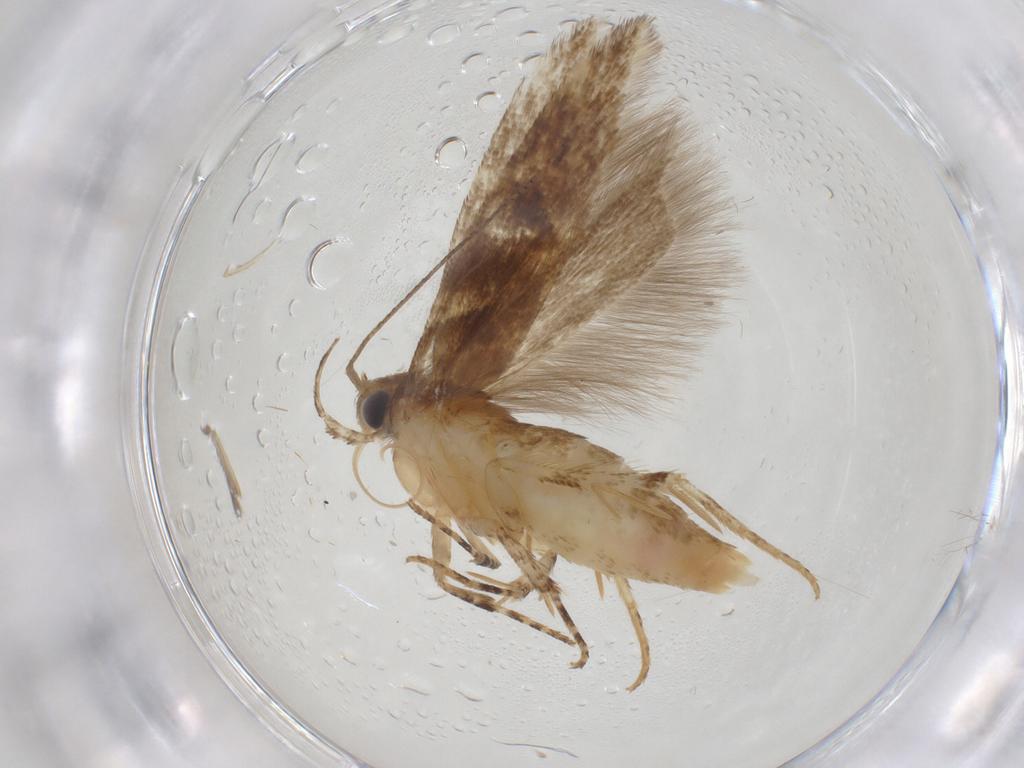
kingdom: Animalia
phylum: Arthropoda
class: Insecta
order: Lepidoptera
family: Gelechiidae
